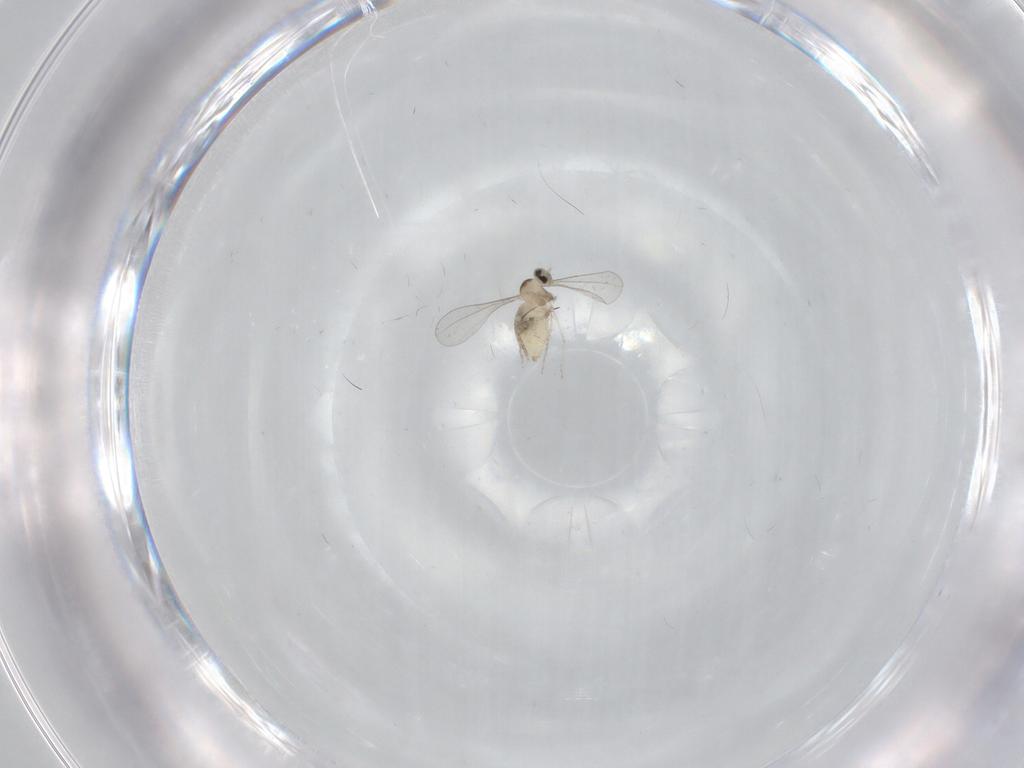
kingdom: Animalia
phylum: Arthropoda
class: Insecta
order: Diptera
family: Cecidomyiidae
